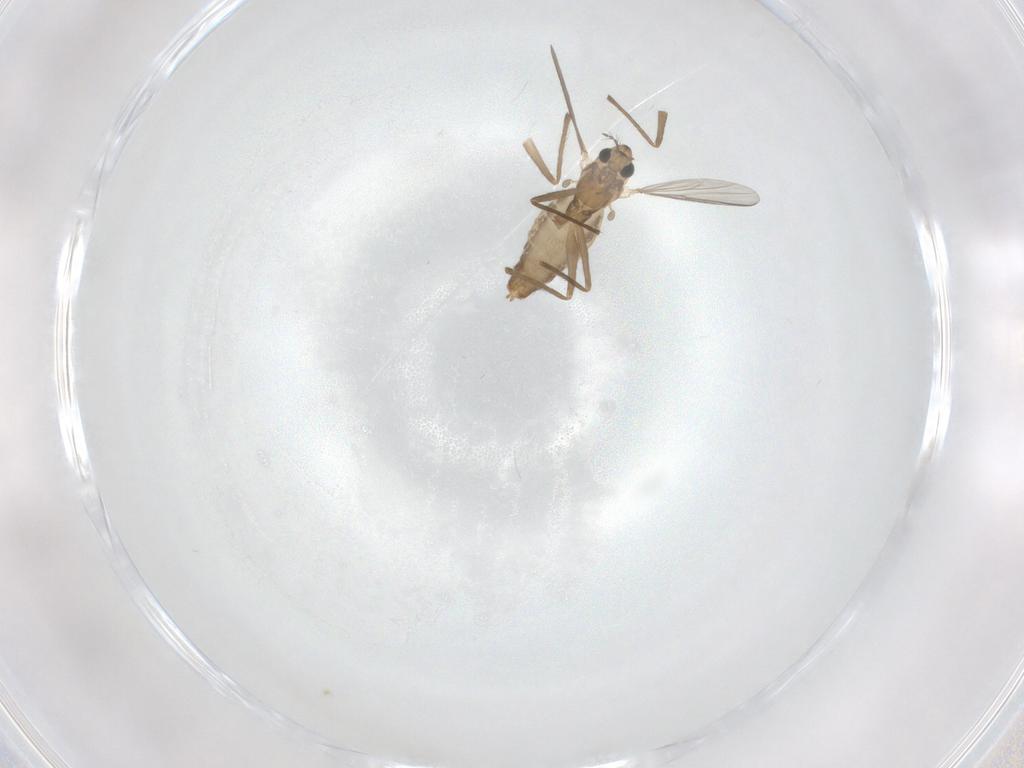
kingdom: Animalia
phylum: Arthropoda
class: Insecta
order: Diptera
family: Chironomidae
